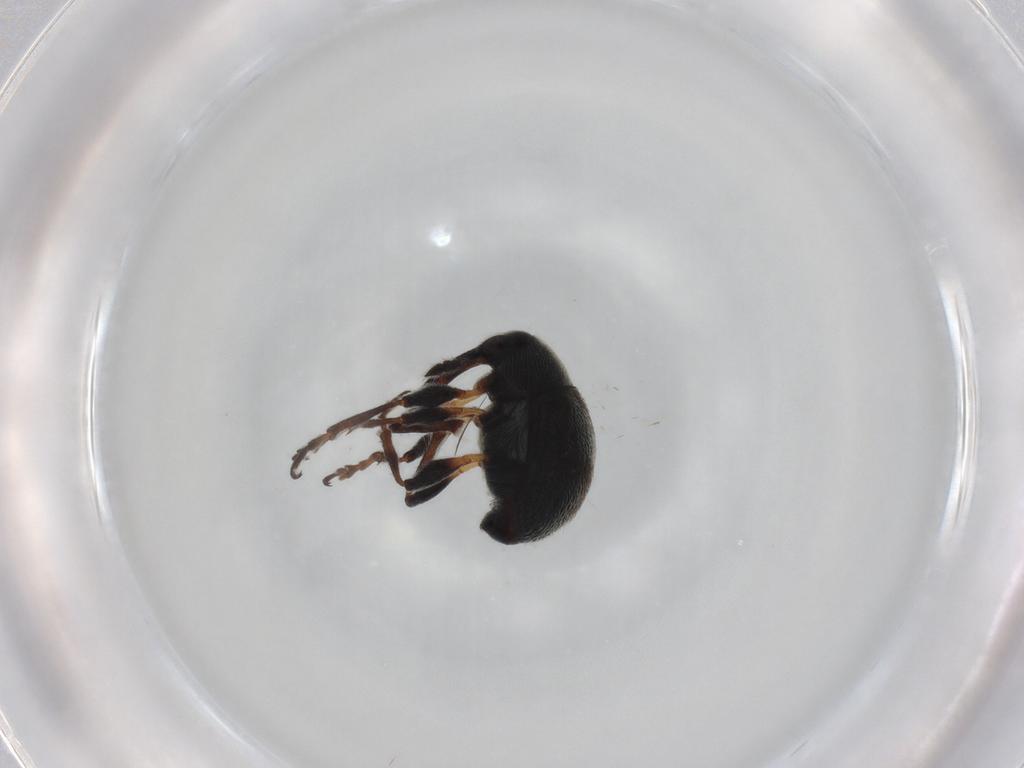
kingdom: Animalia
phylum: Arthropoda
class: Insecta
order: Coleoptera
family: Brentidae
